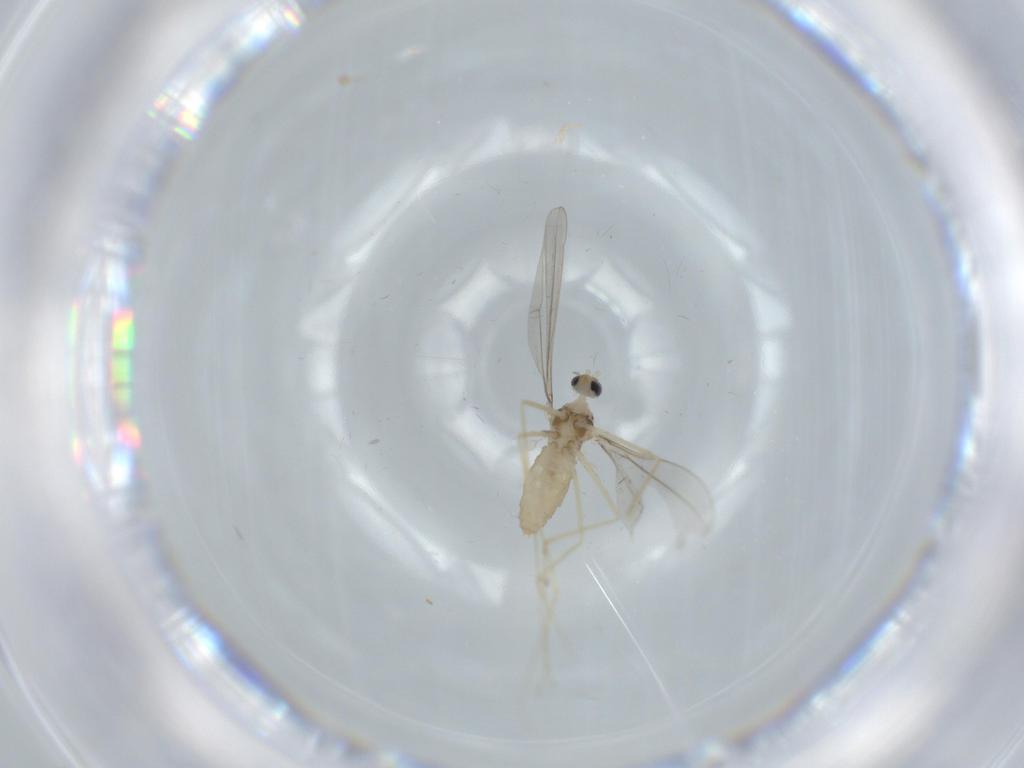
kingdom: Animalia
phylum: Arthropoda
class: Insecta
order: Diptera
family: Cecidomyiidae
